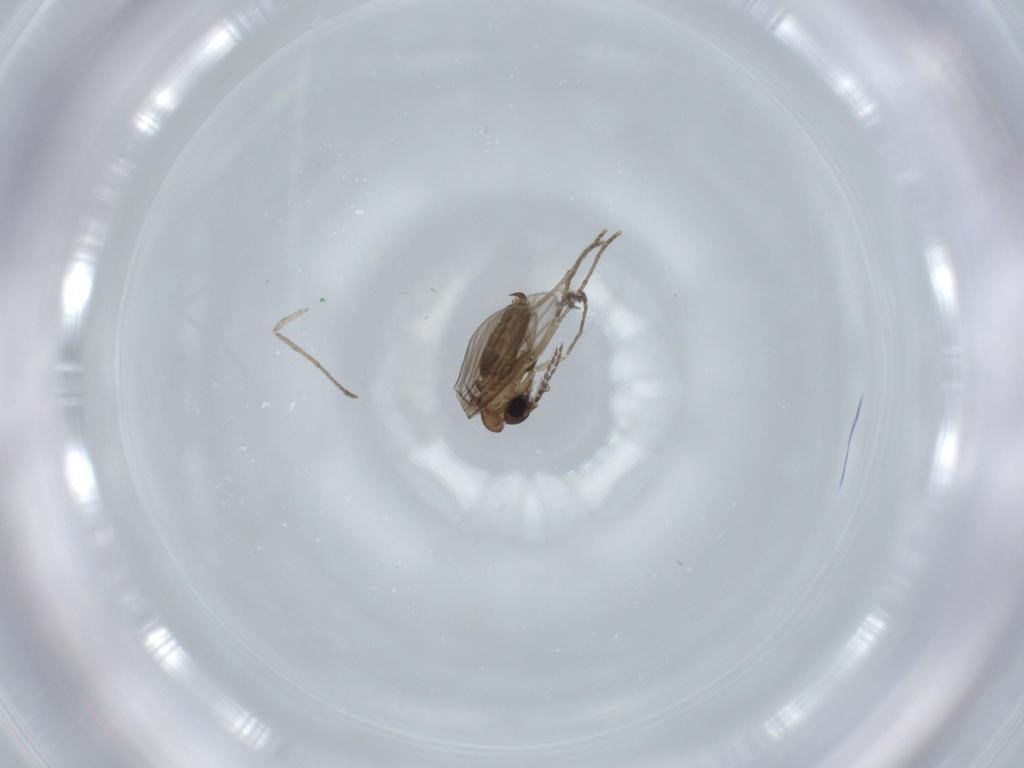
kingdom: Animalia
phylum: Arthropoda
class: Insecta
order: Diptera
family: Psychodidae
